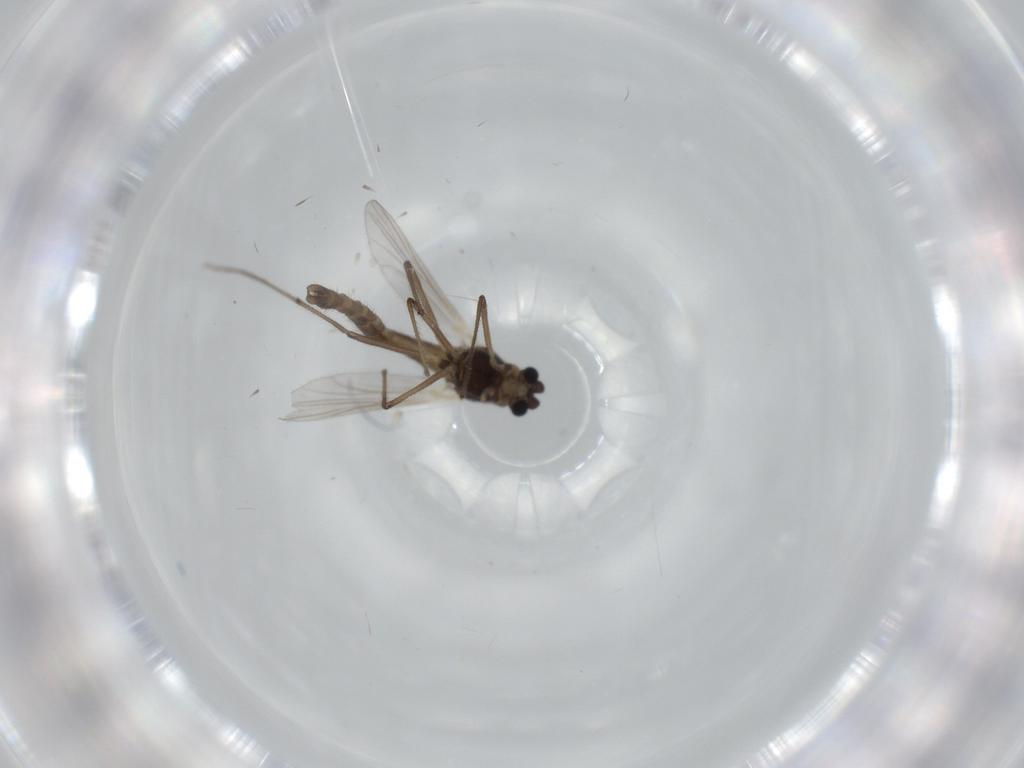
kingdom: Animalia
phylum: Arthropoda
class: Insecta
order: Diptera
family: Chironomidae
